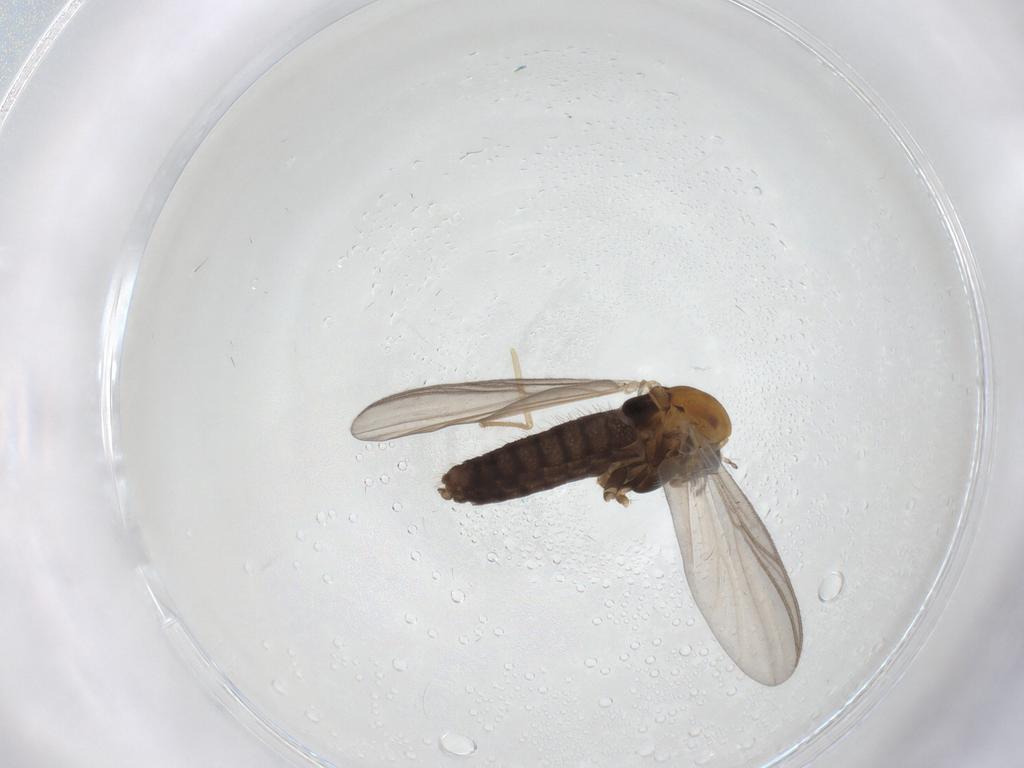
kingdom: Animalia
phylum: Arthropoda
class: Insecta
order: Diptera
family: Chironomidae
